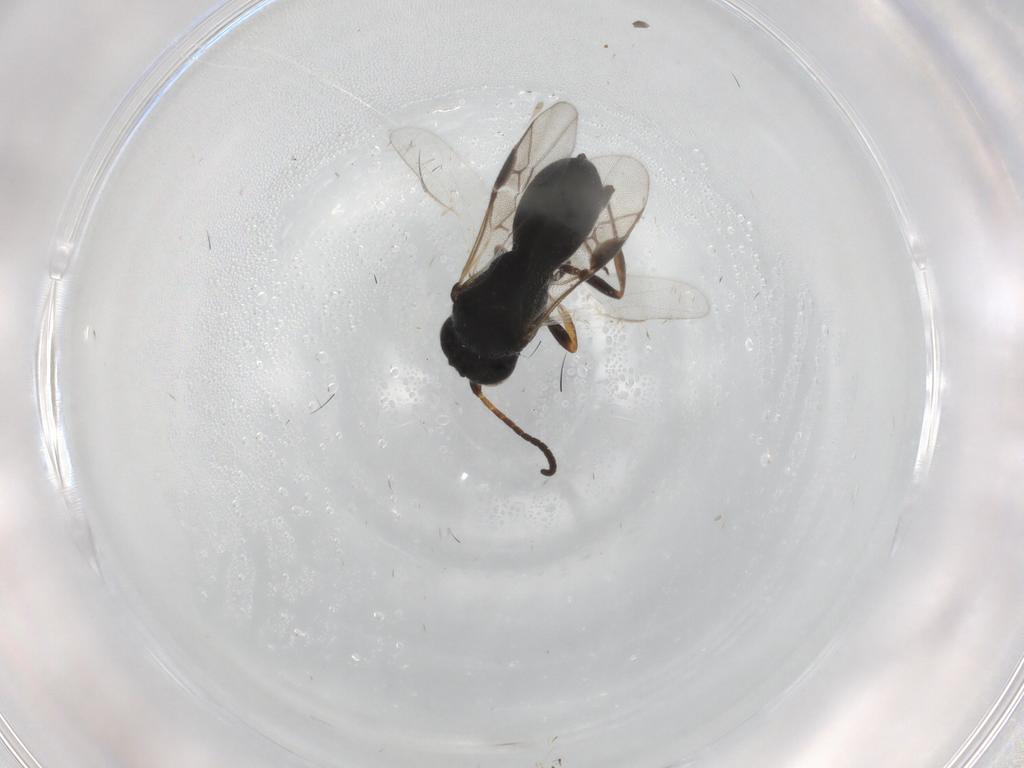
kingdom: Animalia
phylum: Arthropoda
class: Insecta
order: Hymenoptera
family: Braconidae
